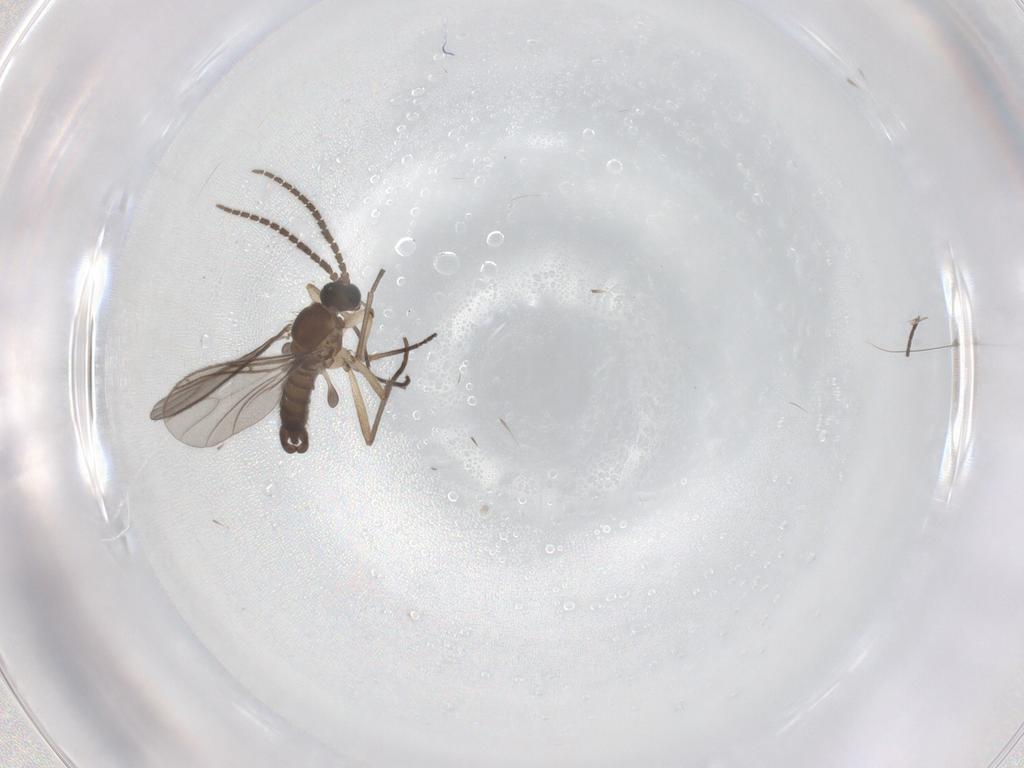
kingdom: Animalia
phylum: Arthropoda
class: Insecta
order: Diptera
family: Sciaridae
